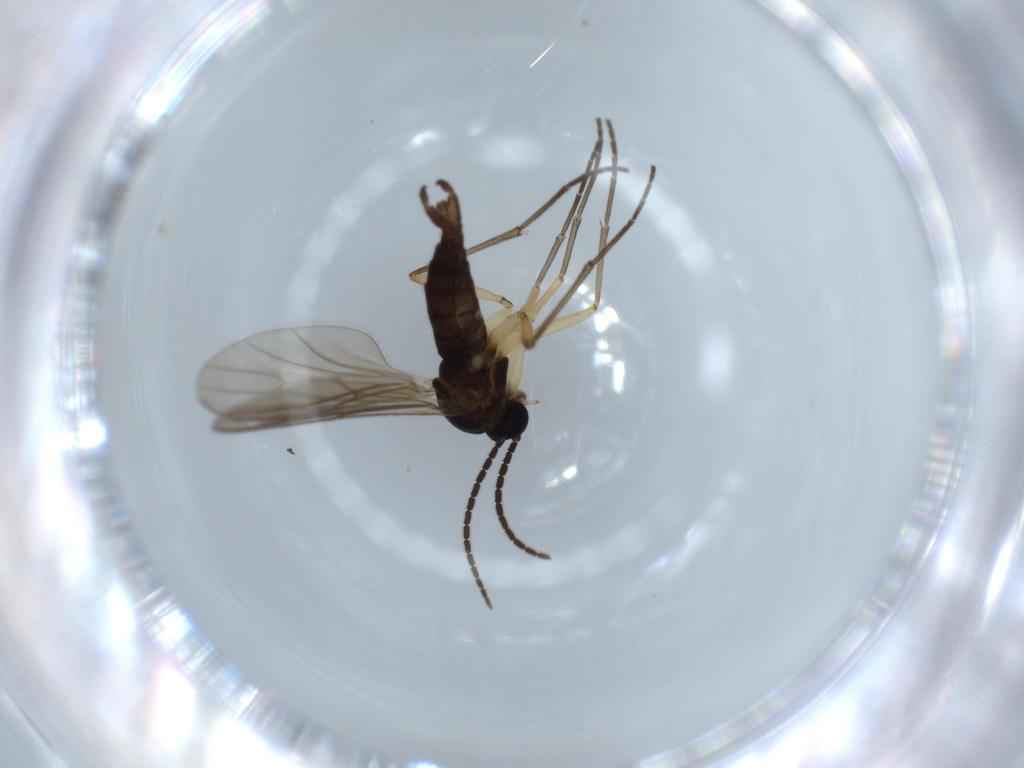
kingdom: Animalia
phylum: Arthropoda
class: Insecta
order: Diptera
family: Sciaridae
